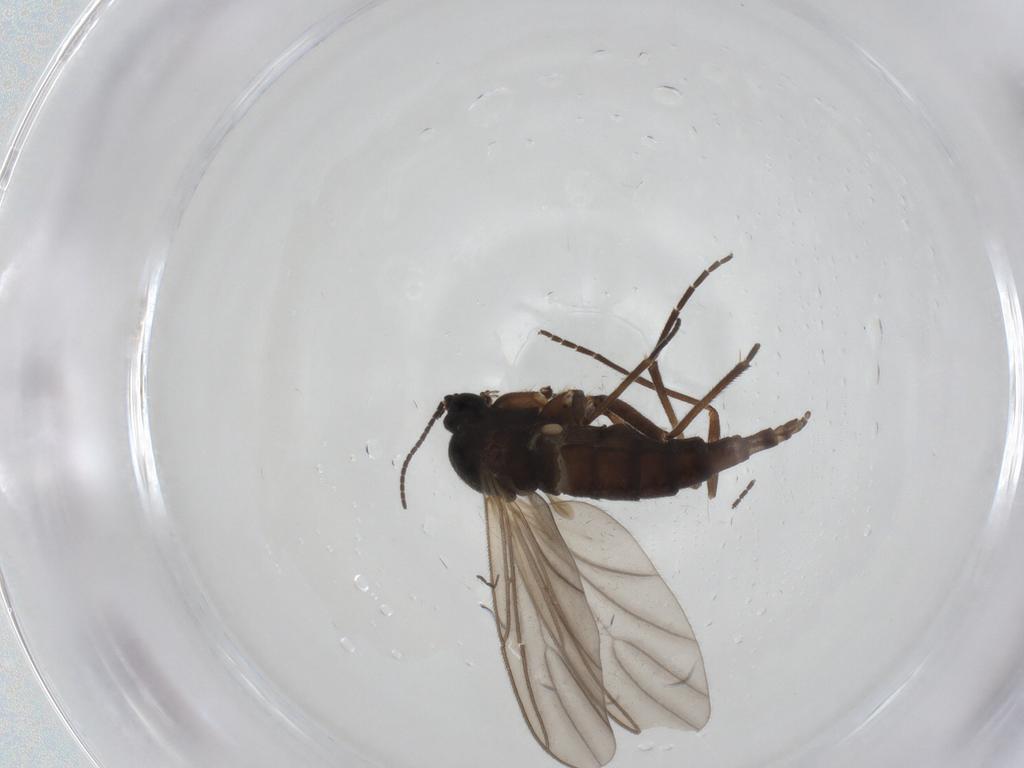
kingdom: Animalia
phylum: Arthropoda
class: Insecta
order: Diptera
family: Sciaridae
